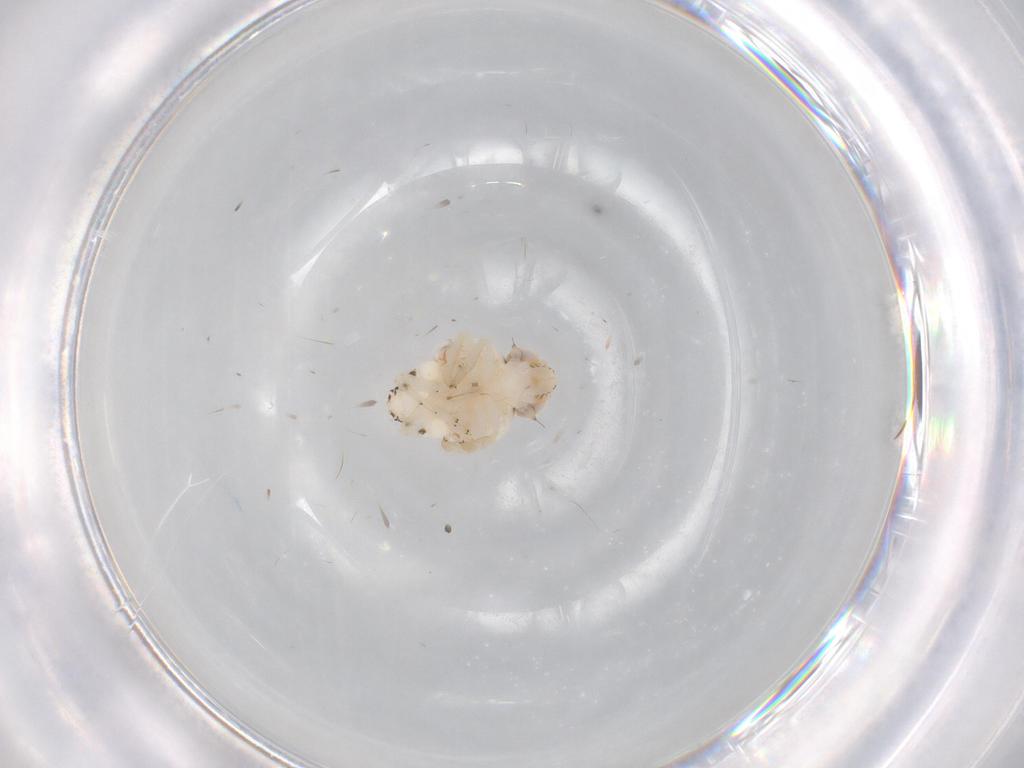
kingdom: Animalia
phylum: Arthropoda
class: Insecta
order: Hemiptera
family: Nogodinidae
